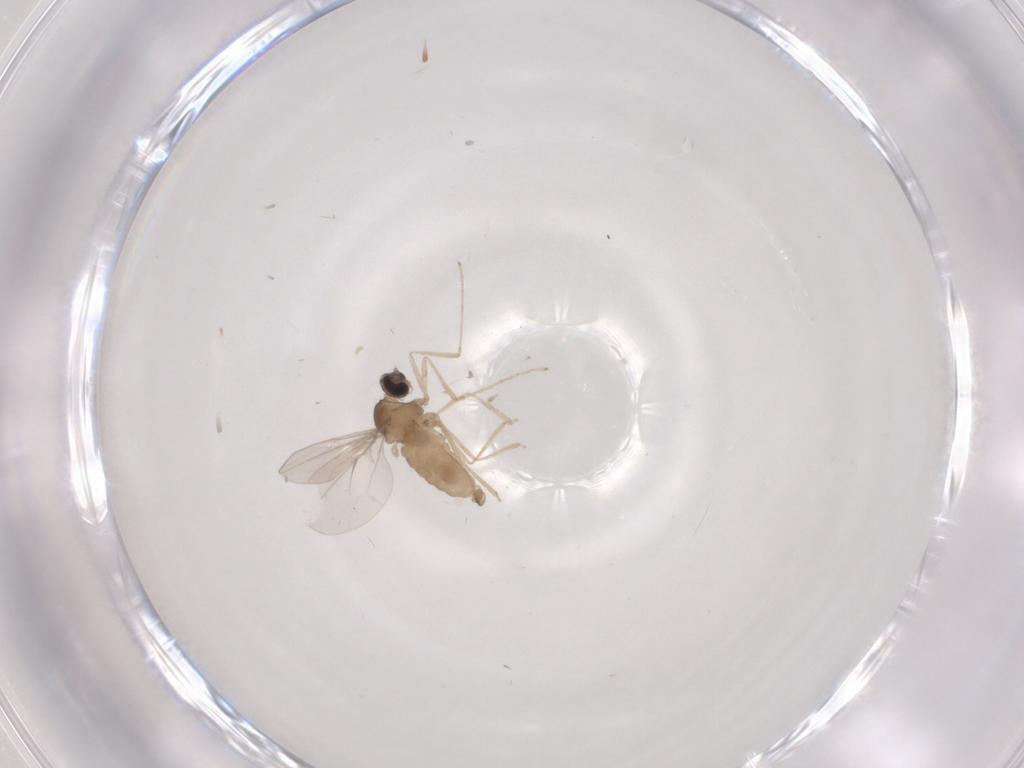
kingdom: Animalia
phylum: Arthropoda
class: Insecta
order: Diptera
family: Cecidomyiidae
